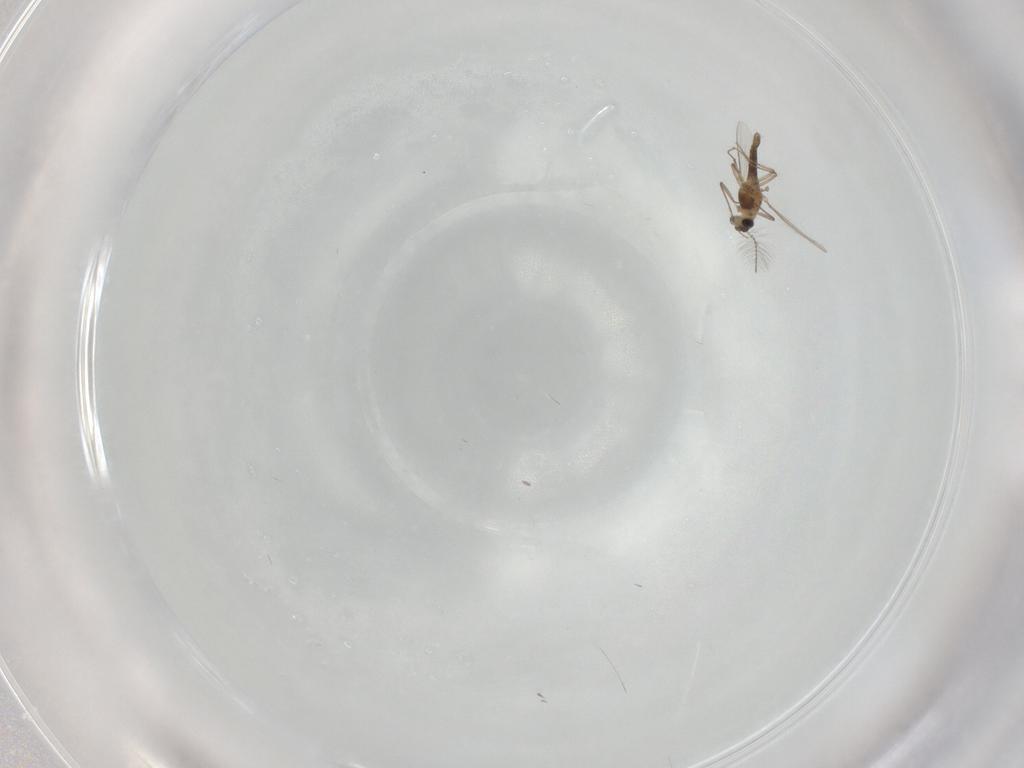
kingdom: Animalia
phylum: Arthropoda
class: Insecta
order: Diptera
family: Chironomidae
